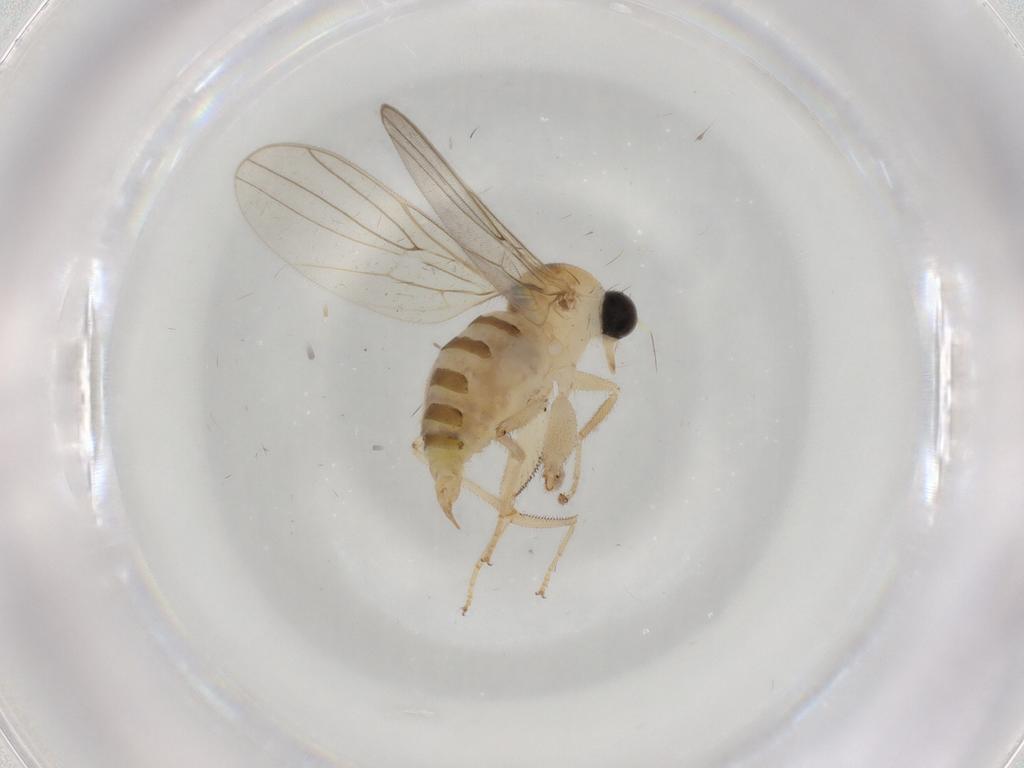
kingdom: Animalia
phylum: Arthropoda
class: Insecta
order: Diptera
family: Hybotidae
